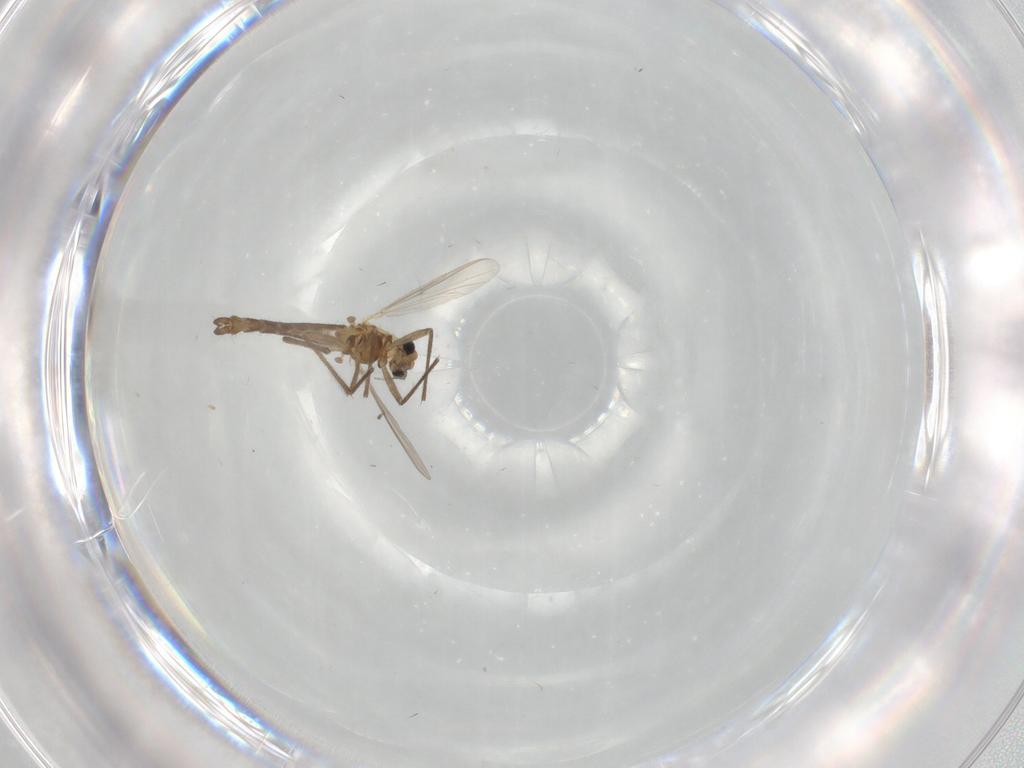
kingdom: Animalia
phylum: Arthropoda
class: Insecta
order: Diptera
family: Chironomidae
